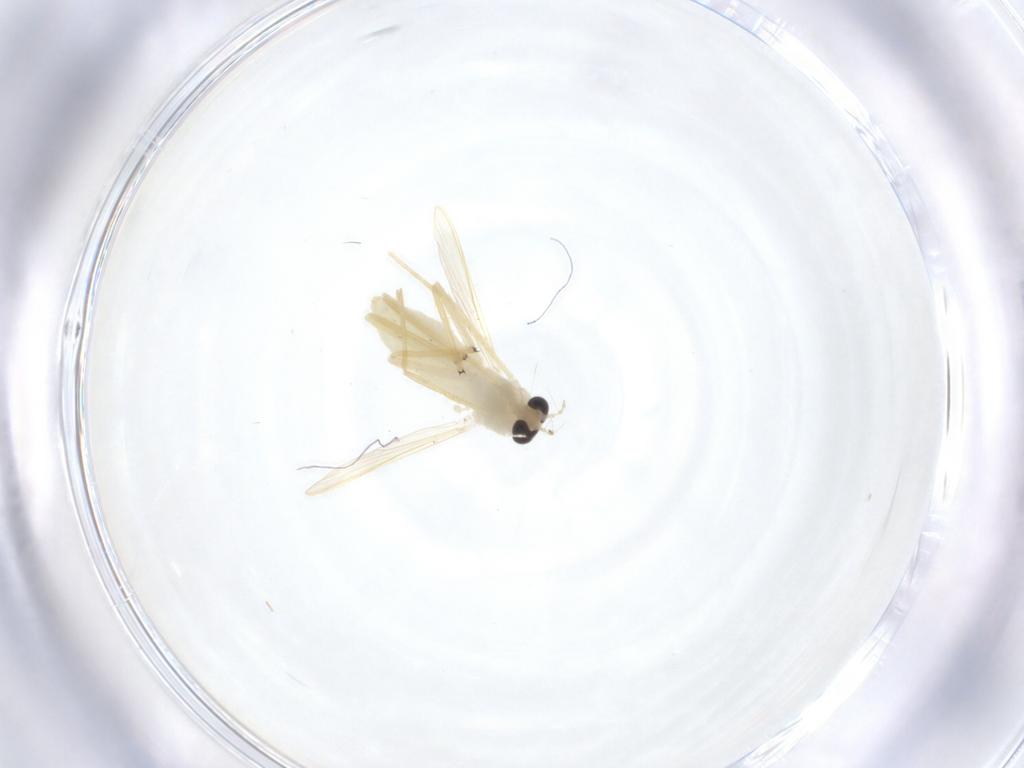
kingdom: Animalia
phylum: Arthropoda
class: Insecta
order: Diptera
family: Chironomidae
